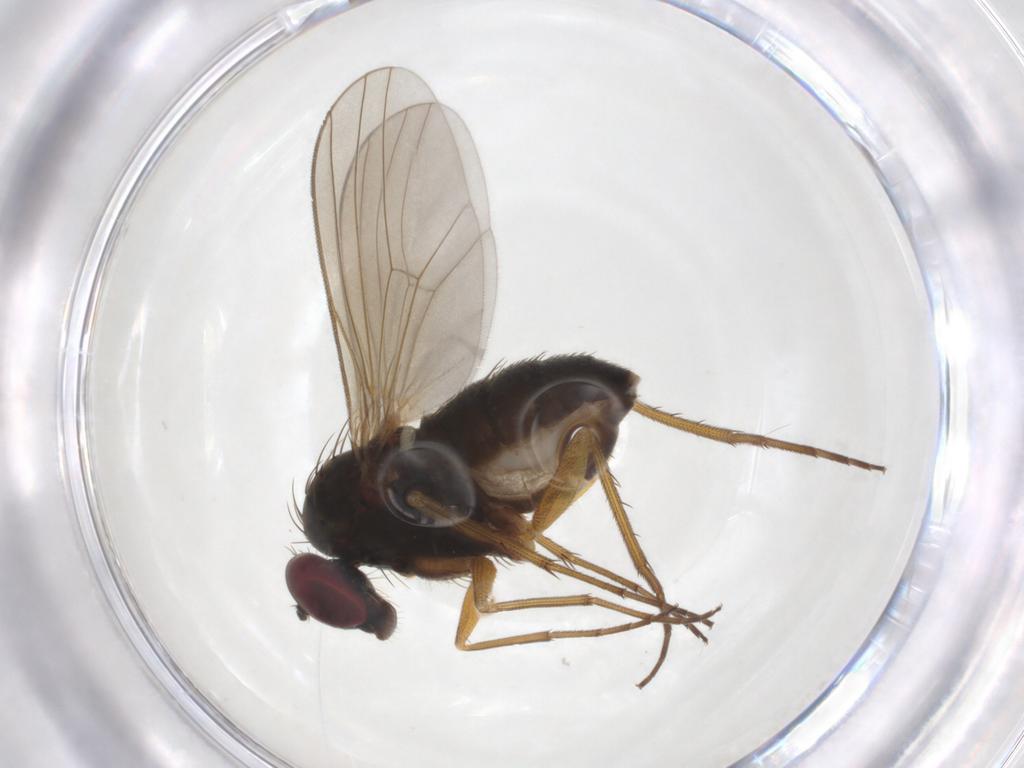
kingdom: Animalia
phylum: Arthropoda
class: Insecta
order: Diptera
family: Dolichopodidae
